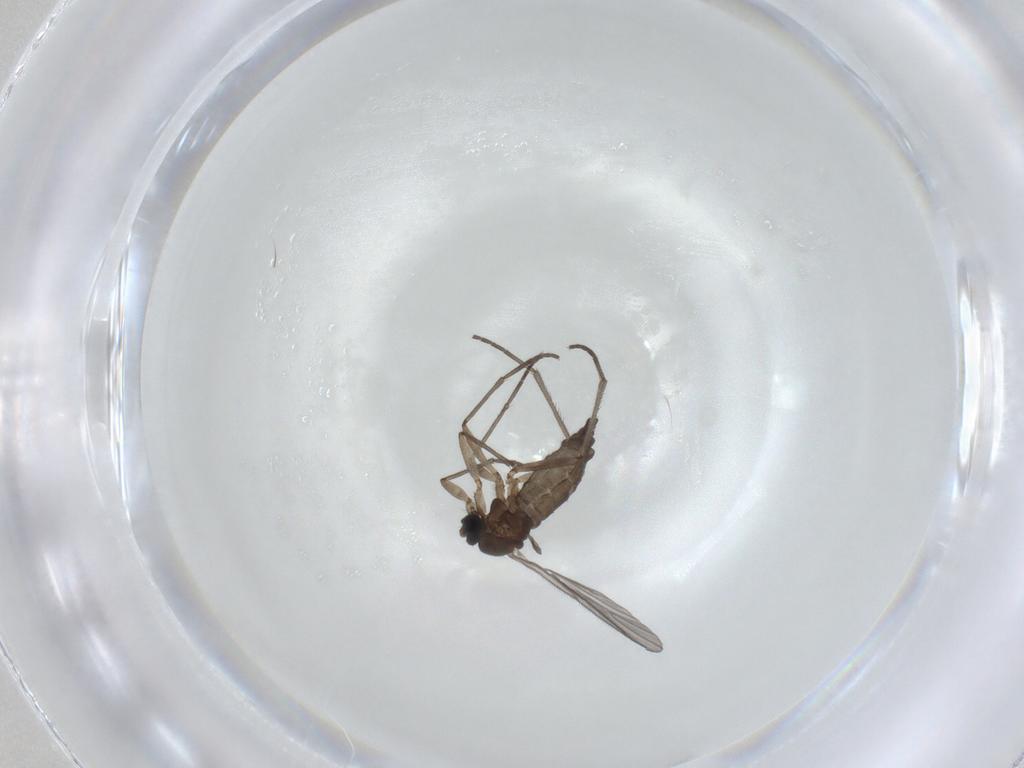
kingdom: Animalia
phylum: Arthropoda
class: Insecta
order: Diptera
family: Sciaridae
